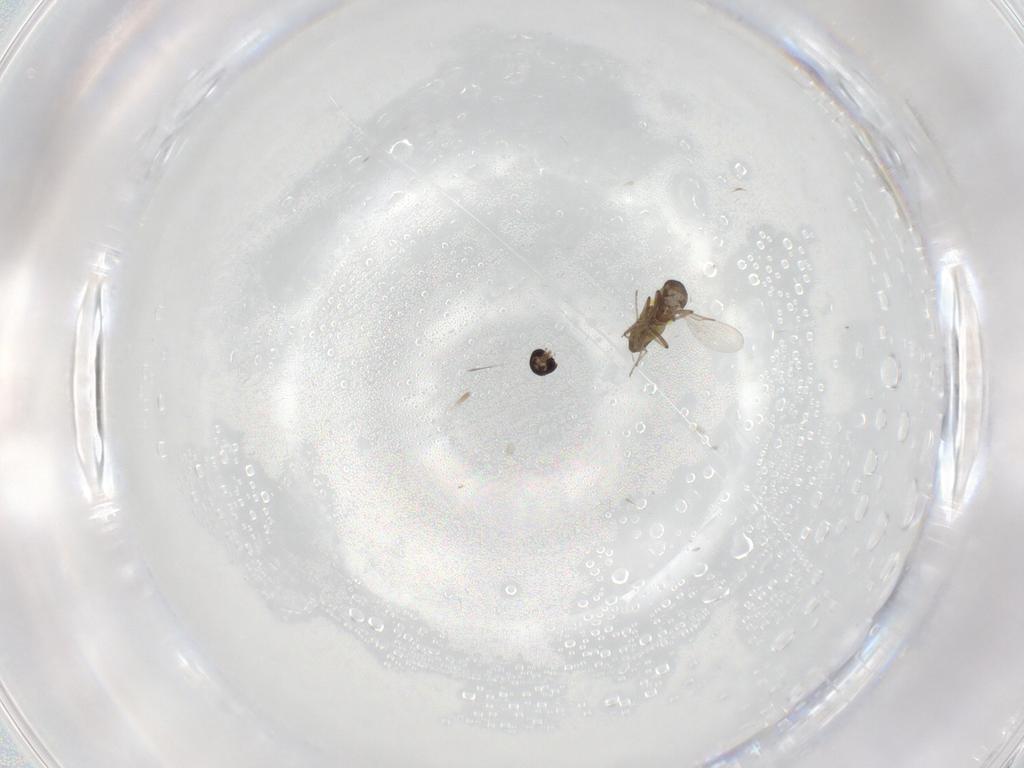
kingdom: Animalia
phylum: Arthropoda
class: Insecta
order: Diptera
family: Ceratopogonidae
